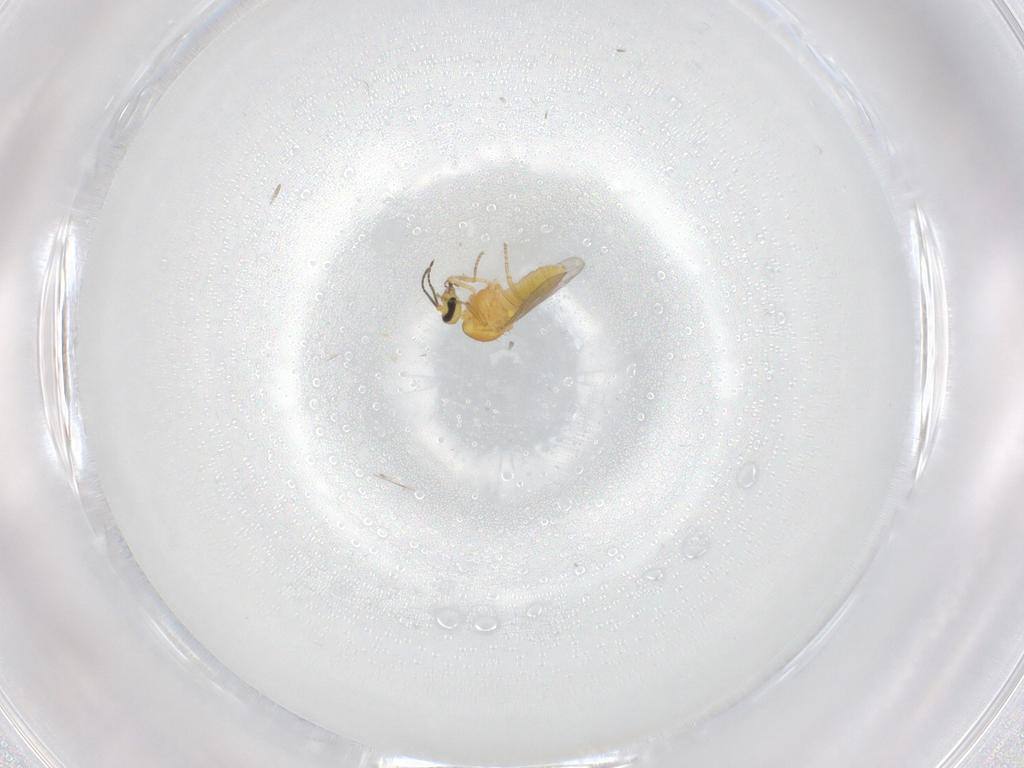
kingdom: Animalia
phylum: Arthropoda
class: Insecta
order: Diptera
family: Ceratopogonidae
